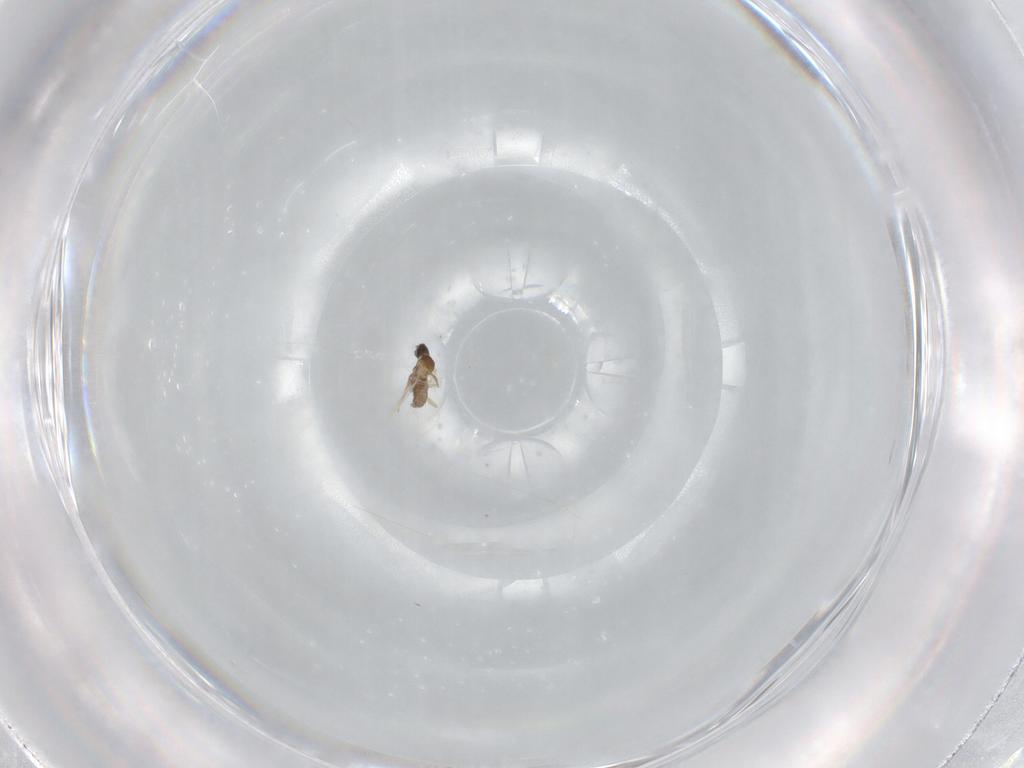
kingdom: Animalia
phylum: Arthropoda
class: Insecta
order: Diptera
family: Cecidomyiidae
